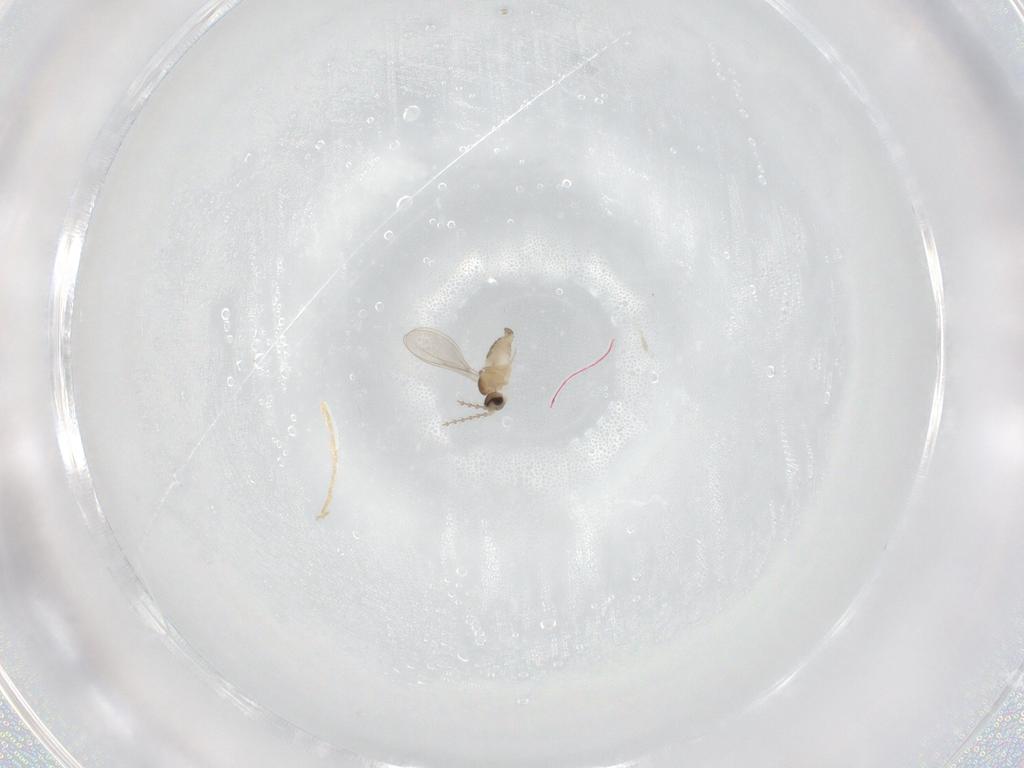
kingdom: Animalia
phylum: Arthropoda
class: Insecta
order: Diptera
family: Cecidomyiidae
